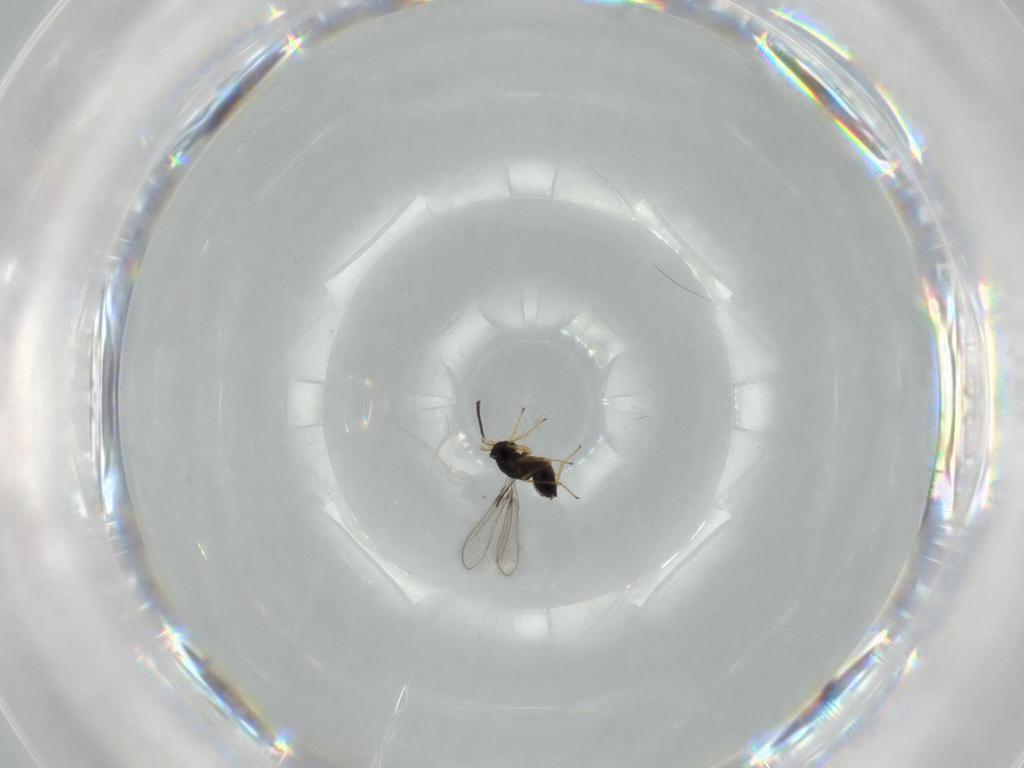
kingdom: Animalia
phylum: Arthropoda
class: Insecta
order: Hymenoptera
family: Mymaridae
